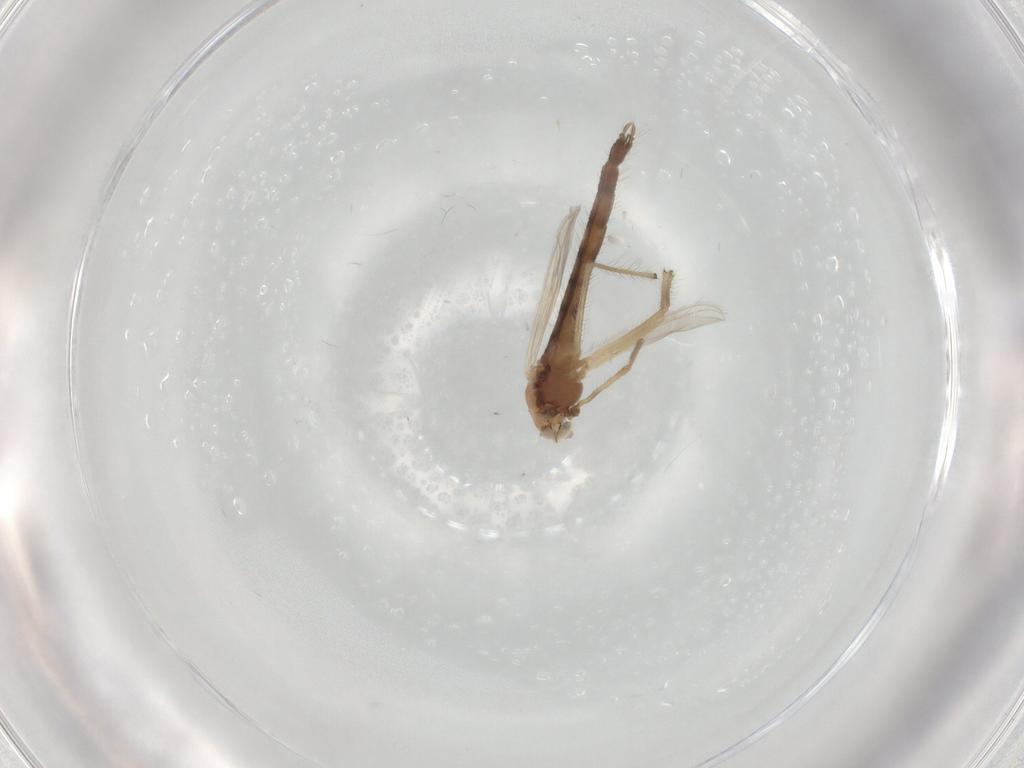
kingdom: Animalia
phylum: Arthropoda
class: Insecta
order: Diptera
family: Chironomidae
